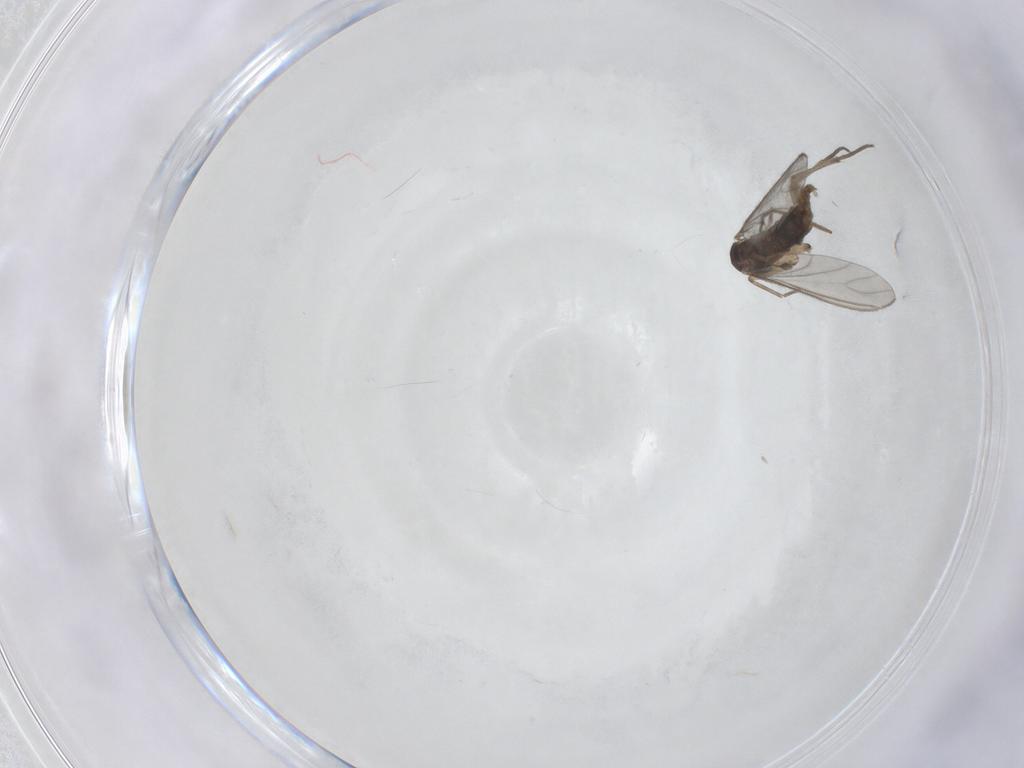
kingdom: Animalia
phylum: Arthropoda
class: Insecta
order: Diptera
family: Sciaridae
